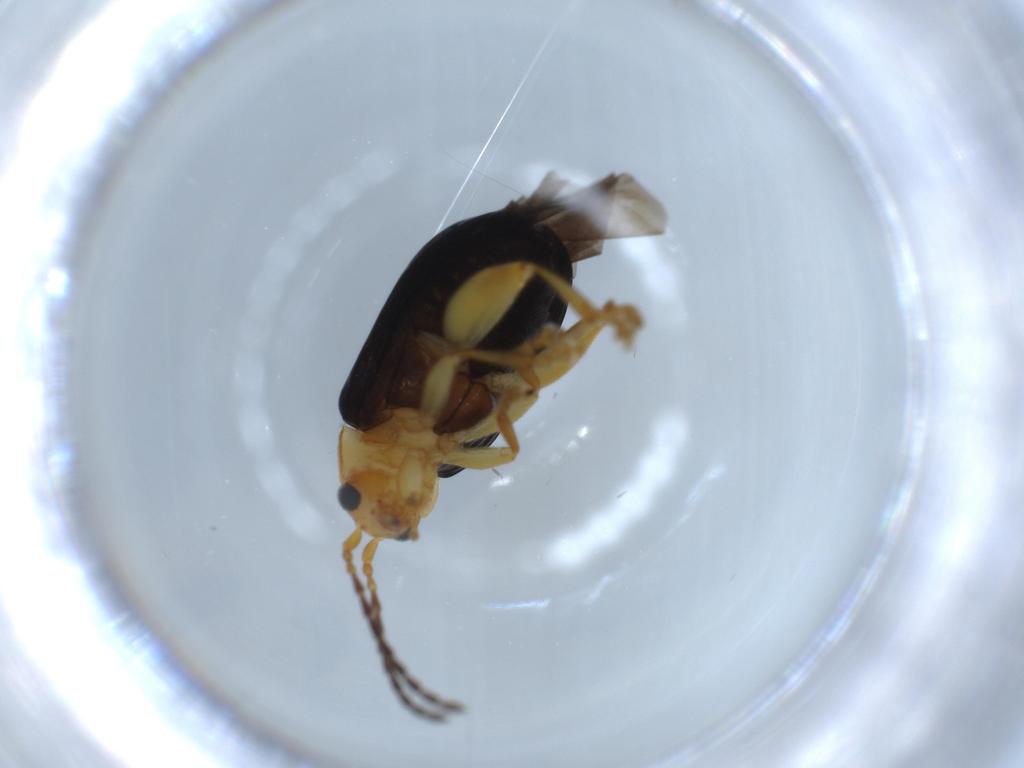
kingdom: Animalia
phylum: Arthropoda
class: Insecta
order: Coleoptera
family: Chrysomelidae
